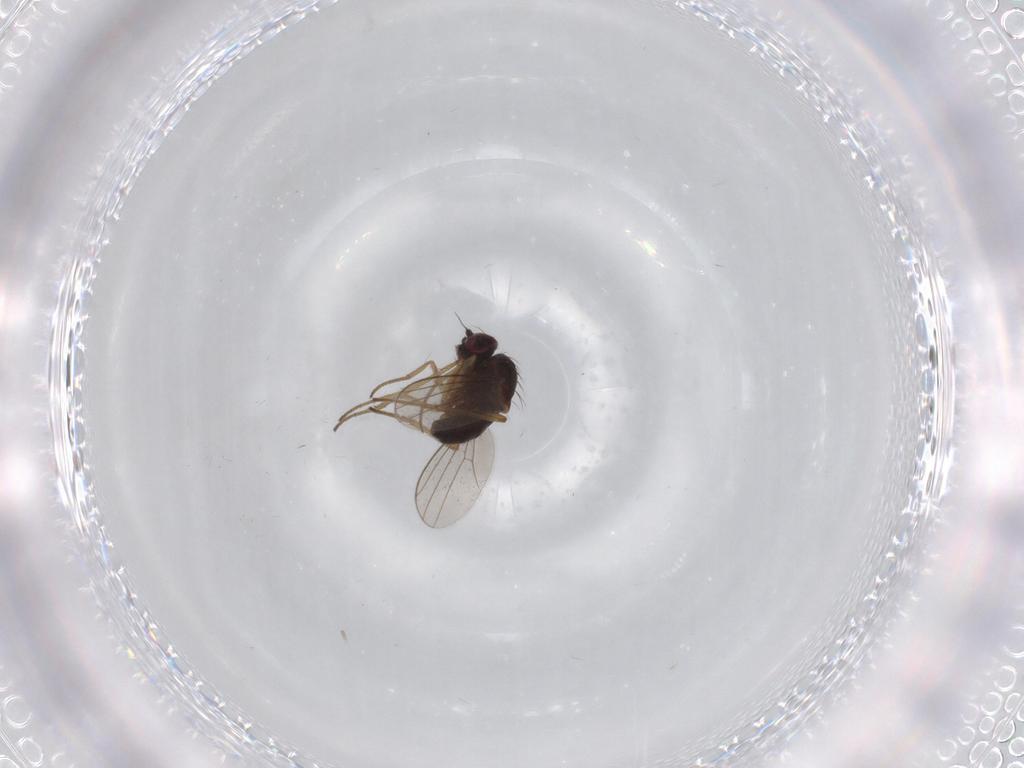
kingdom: Animalia
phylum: Arthropoda
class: Insecta
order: Diptera
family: Dolichopodidae
